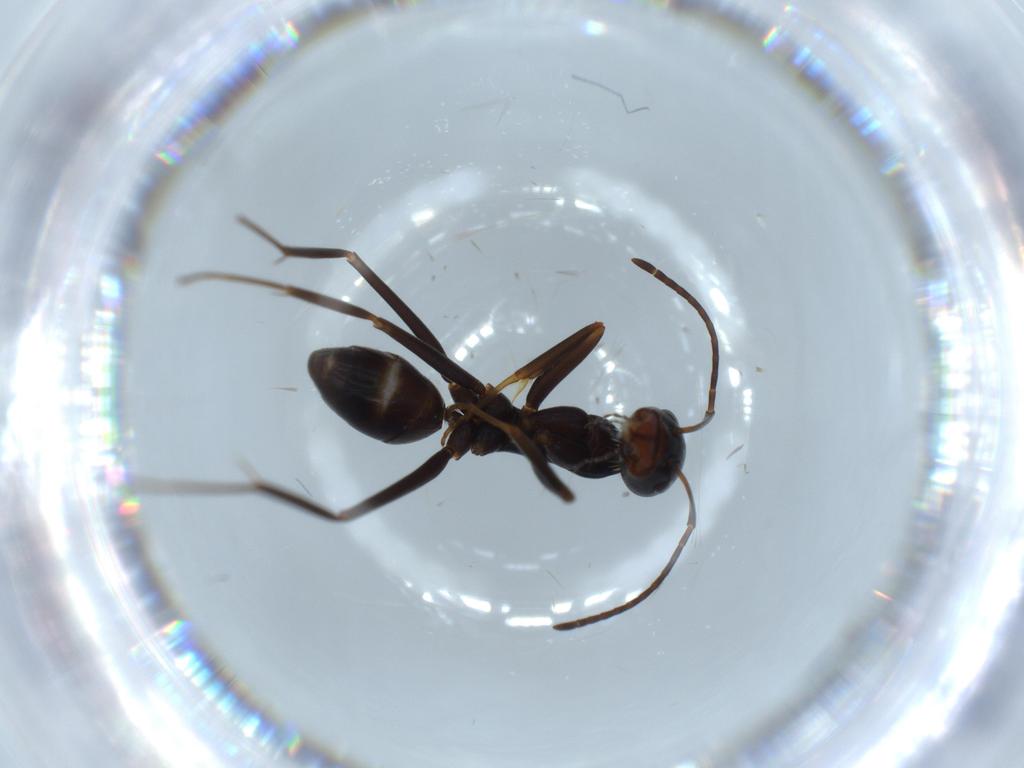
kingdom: Animalia
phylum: Arthropoda
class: Insecta
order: Hymenoptera
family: Formicidae
